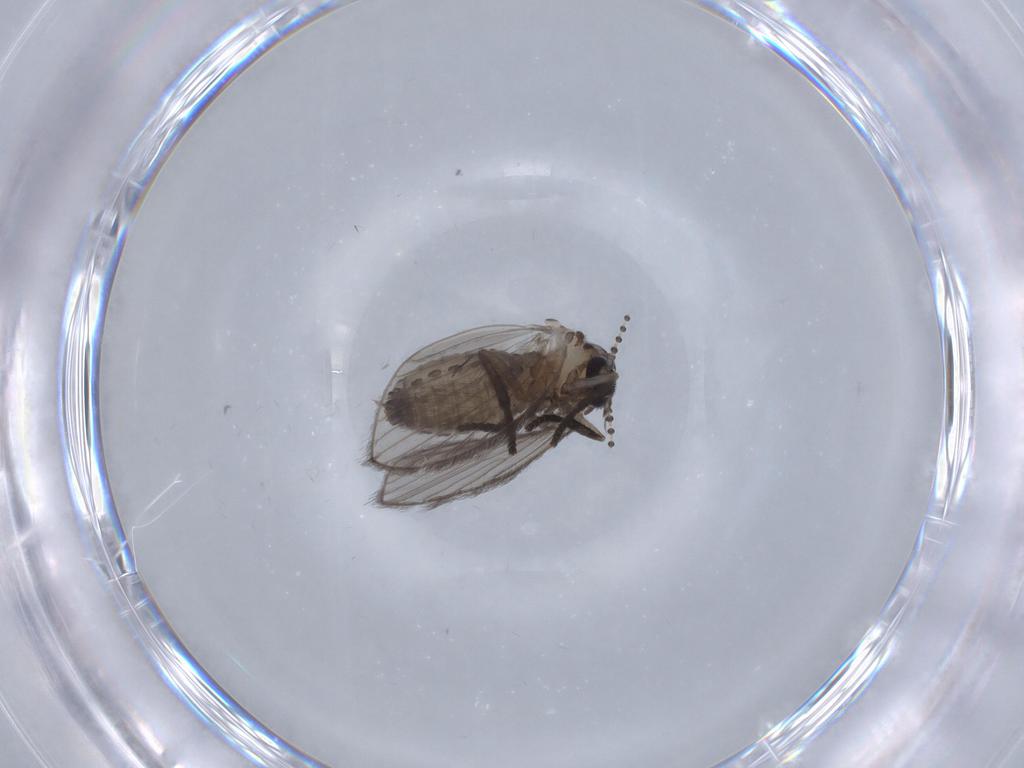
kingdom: Animalia
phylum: Arthropoda
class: Insecta
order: Diptera
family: Psychodidae
